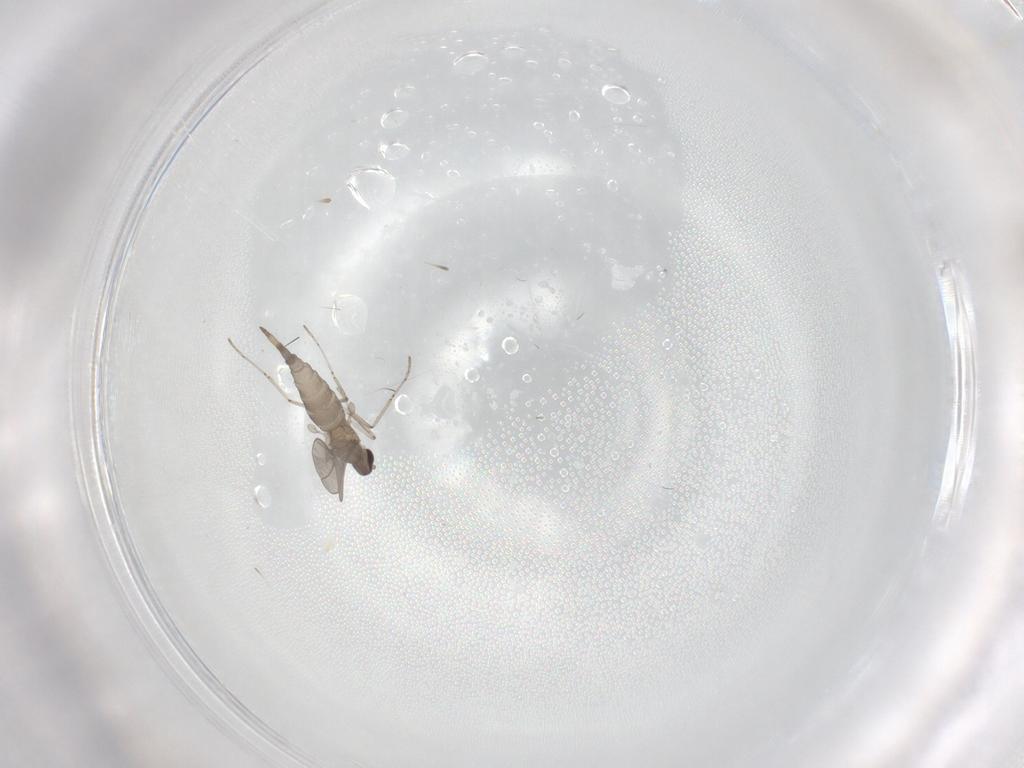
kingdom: Animalia
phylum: Arthropoda
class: Insecta
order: Diptera
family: Cecidomyiidae
